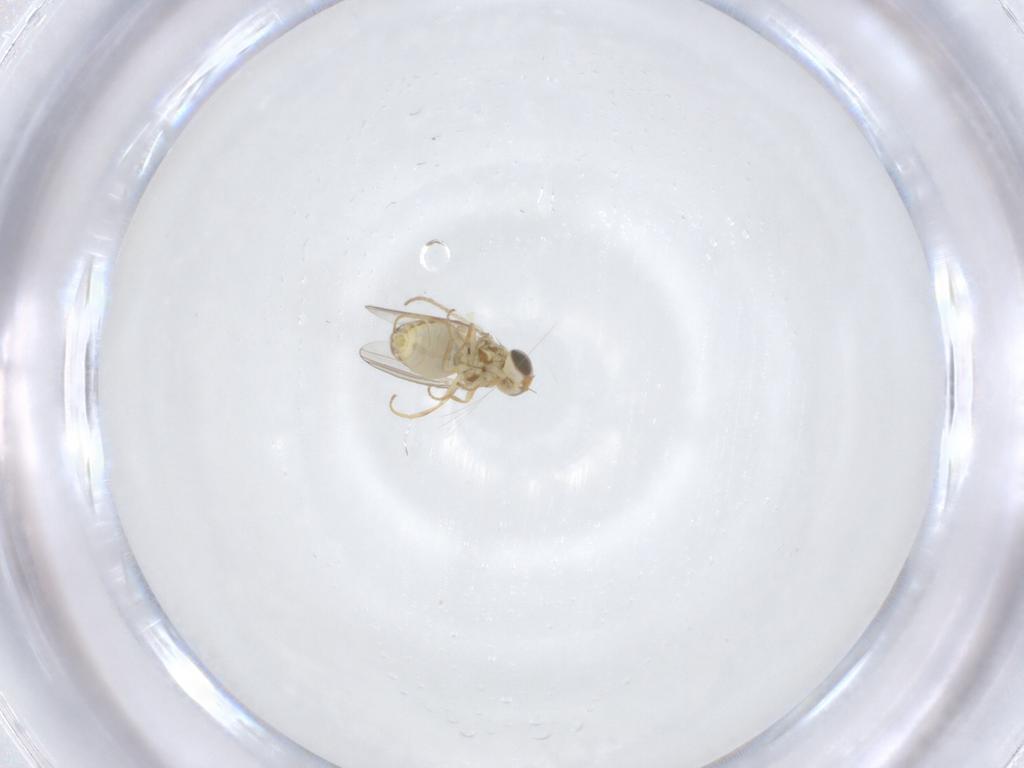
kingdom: Animalia
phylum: Arthropoda
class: Insecta
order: Diptera
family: Chyromyidae
